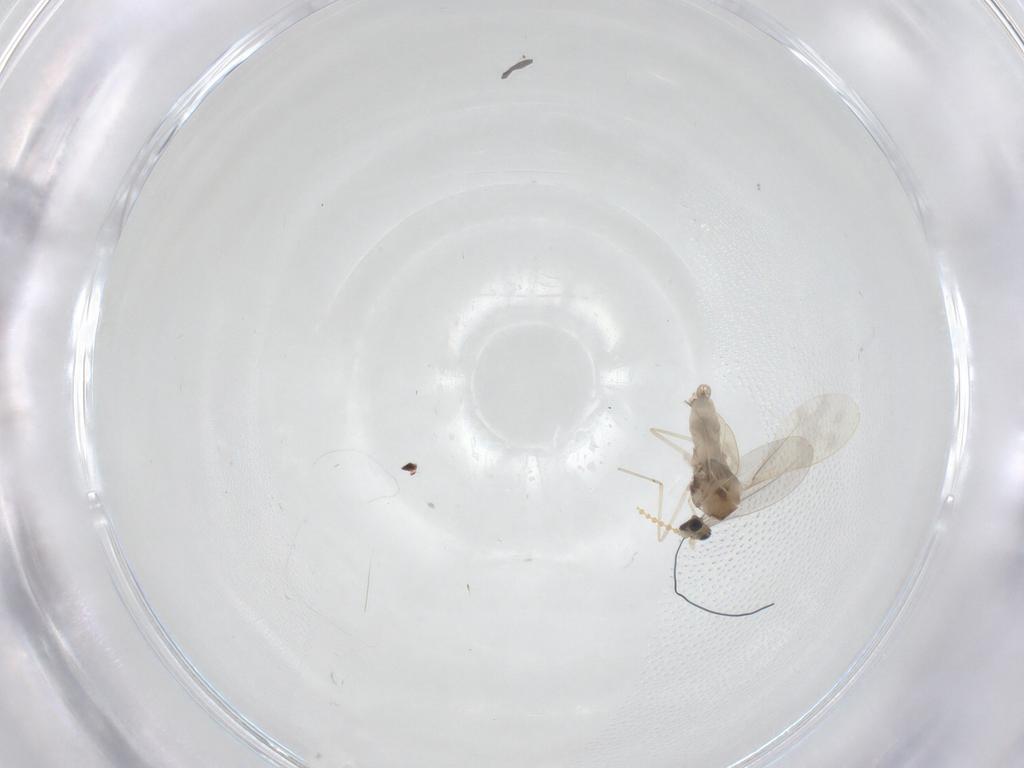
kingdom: Animalia
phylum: Arthropoda
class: Insecta
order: Diptera
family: Cecidomyiidae
